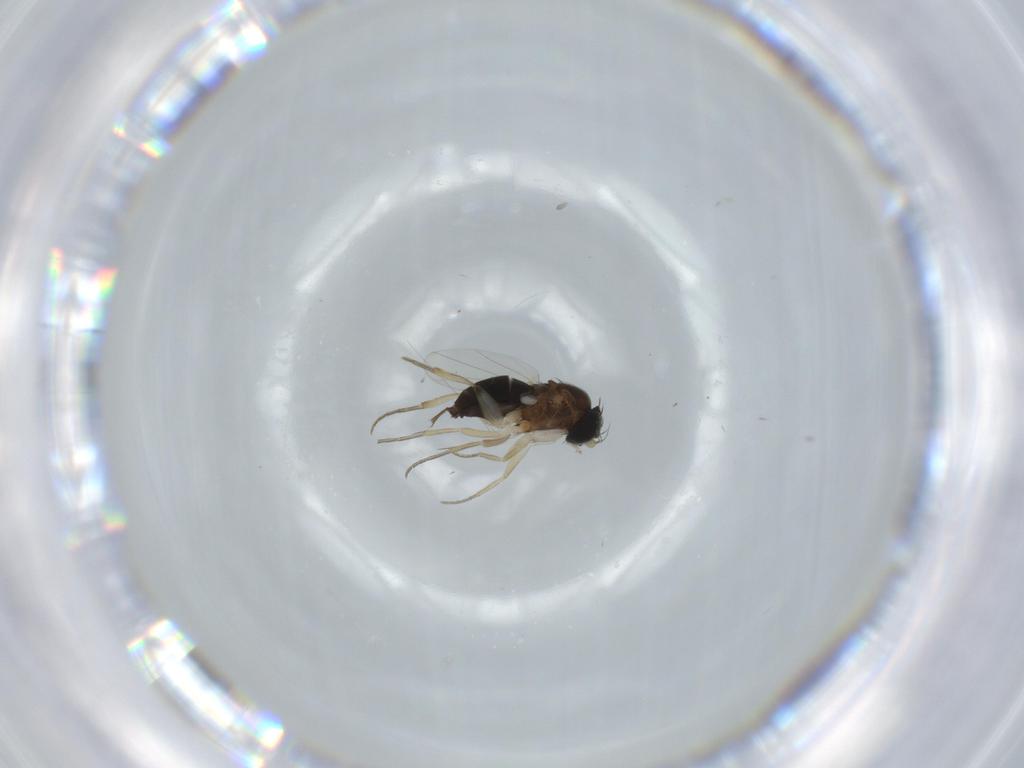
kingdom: Animalia
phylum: Arthropoda
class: Insecta
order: Diptera
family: Phoridae
